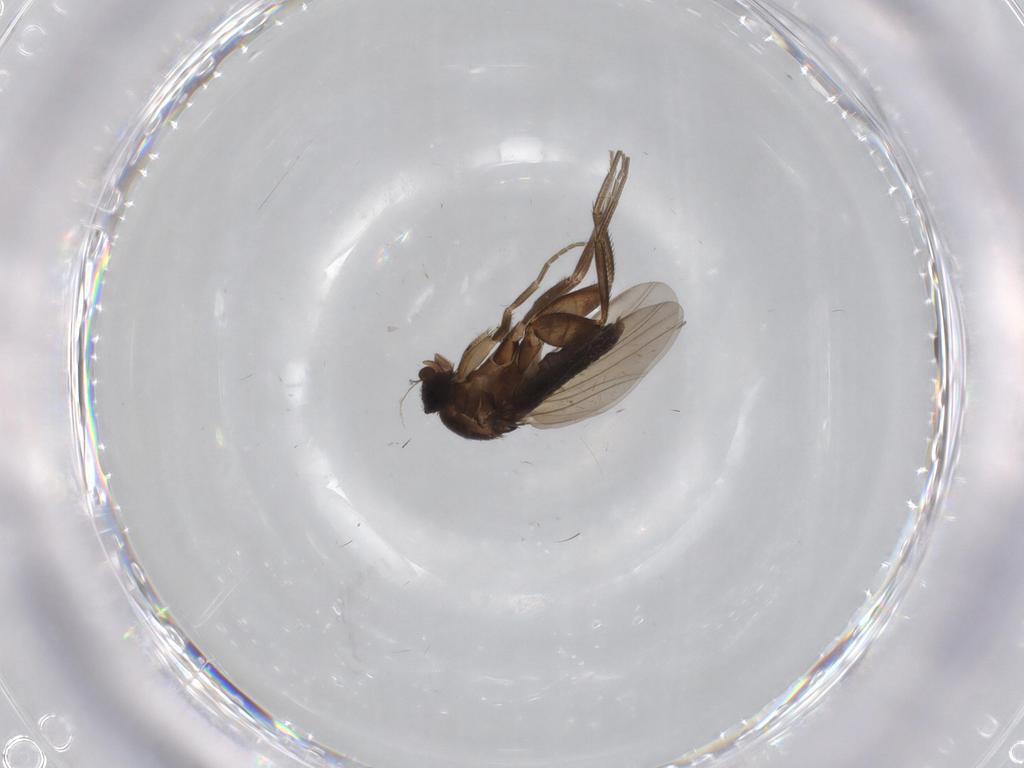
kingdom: Animalia
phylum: Arthropoda
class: Insecta
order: Diptera
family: Phoridae
